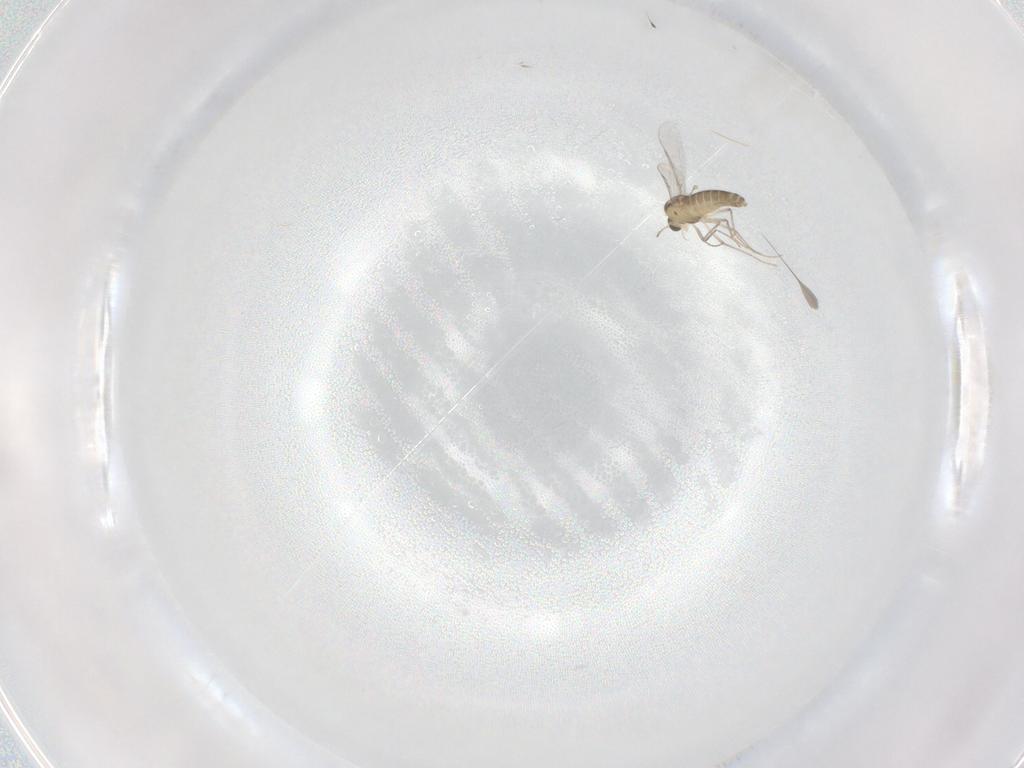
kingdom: Animalia
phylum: Arthropoda
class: Insecta
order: Diptera
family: Chironomidae
